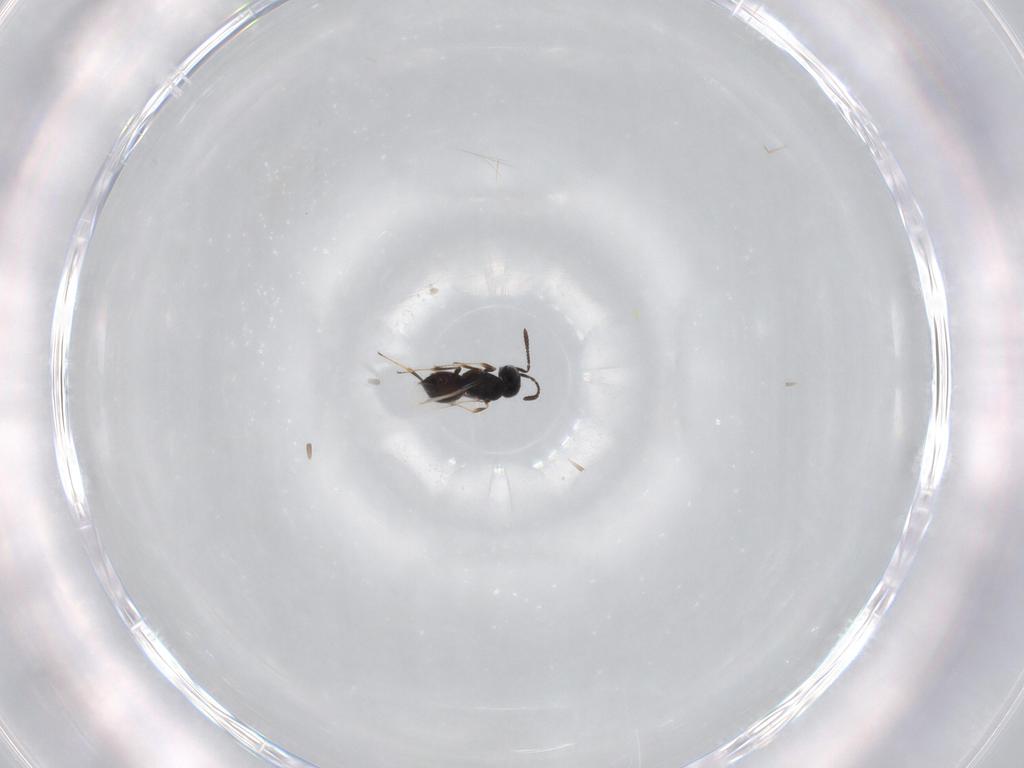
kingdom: Animalia
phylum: Arthropoda
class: Insecta
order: Hymenoptera
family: Scelionidae
